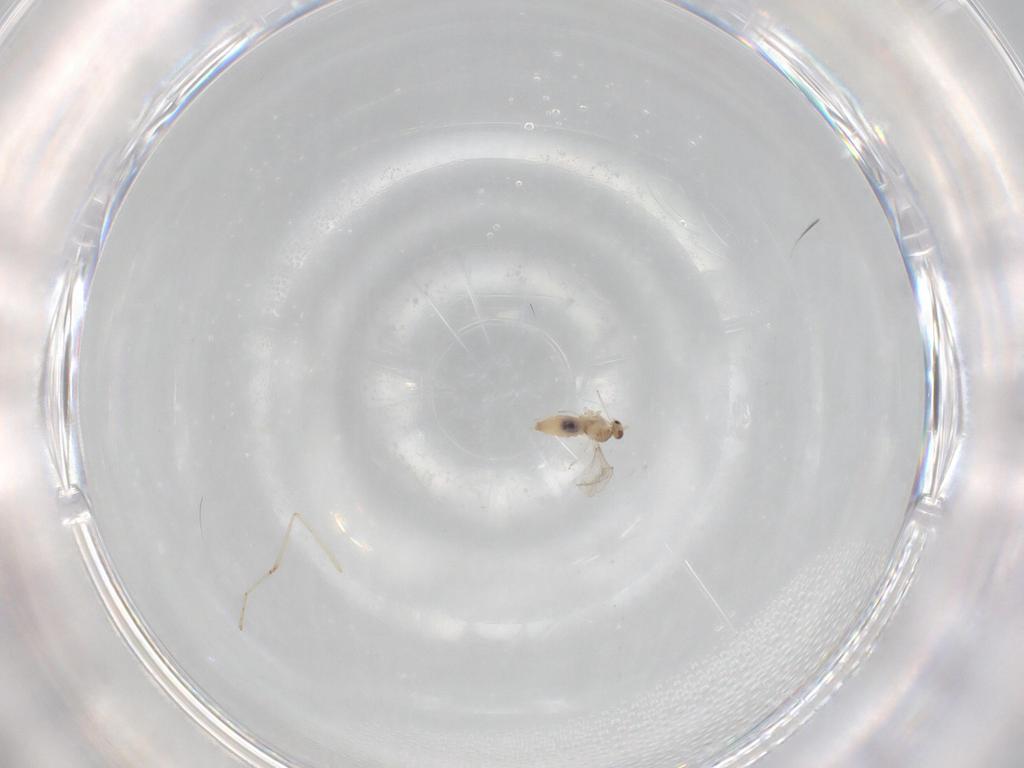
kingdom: Animalia
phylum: Arthropoda
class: Insecta
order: Diptera
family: Cecidomyiidae
